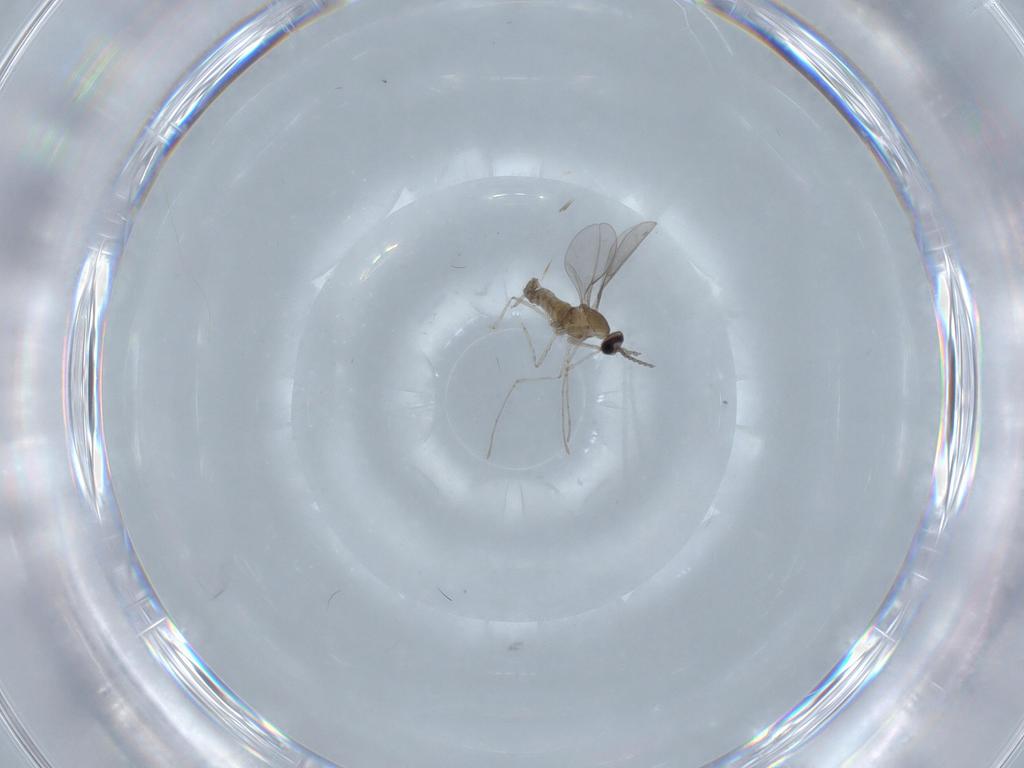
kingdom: Animalia
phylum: Arthropoda
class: Insecta
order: Diptera
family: Cecidomyiidae
